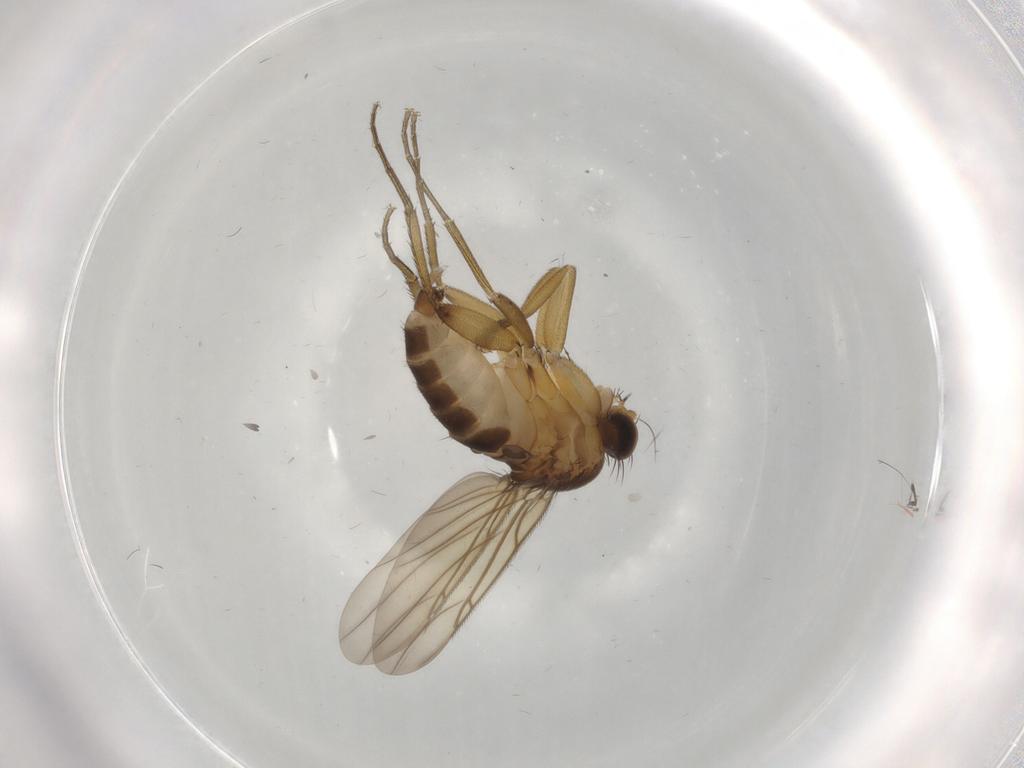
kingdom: Animalia
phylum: Arthropoda
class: Insecta
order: Diptera
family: Phoridae
